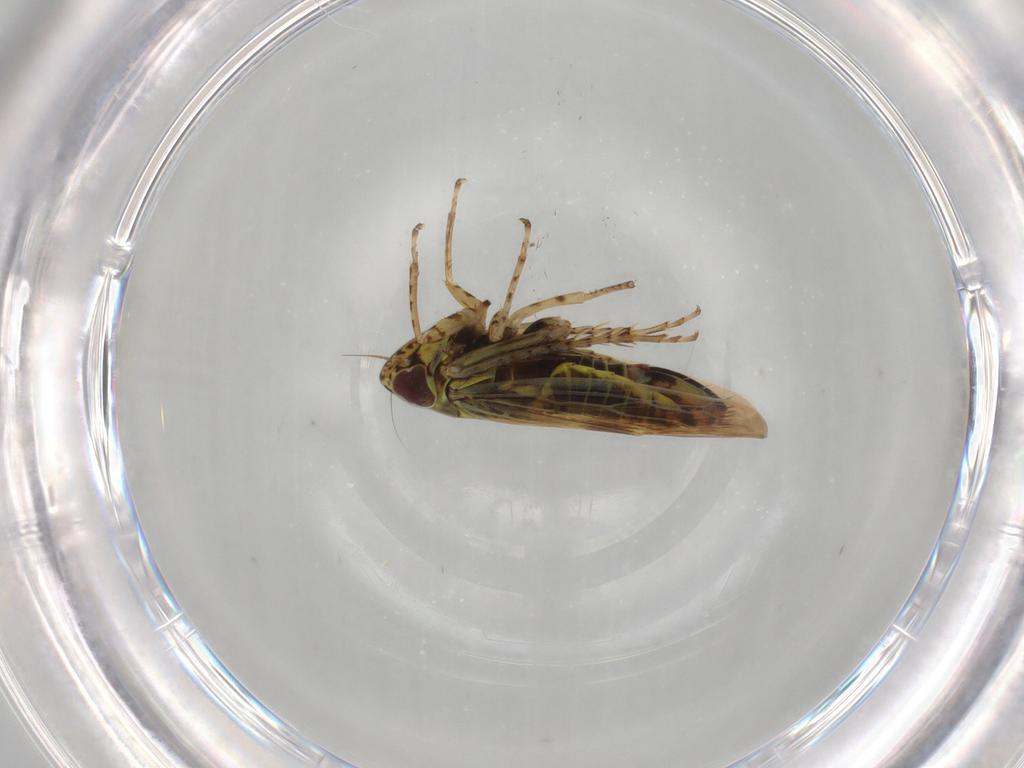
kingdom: Animalia
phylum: Arthropoda
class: Insecta
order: Hemiptera
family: Cicadellidae
